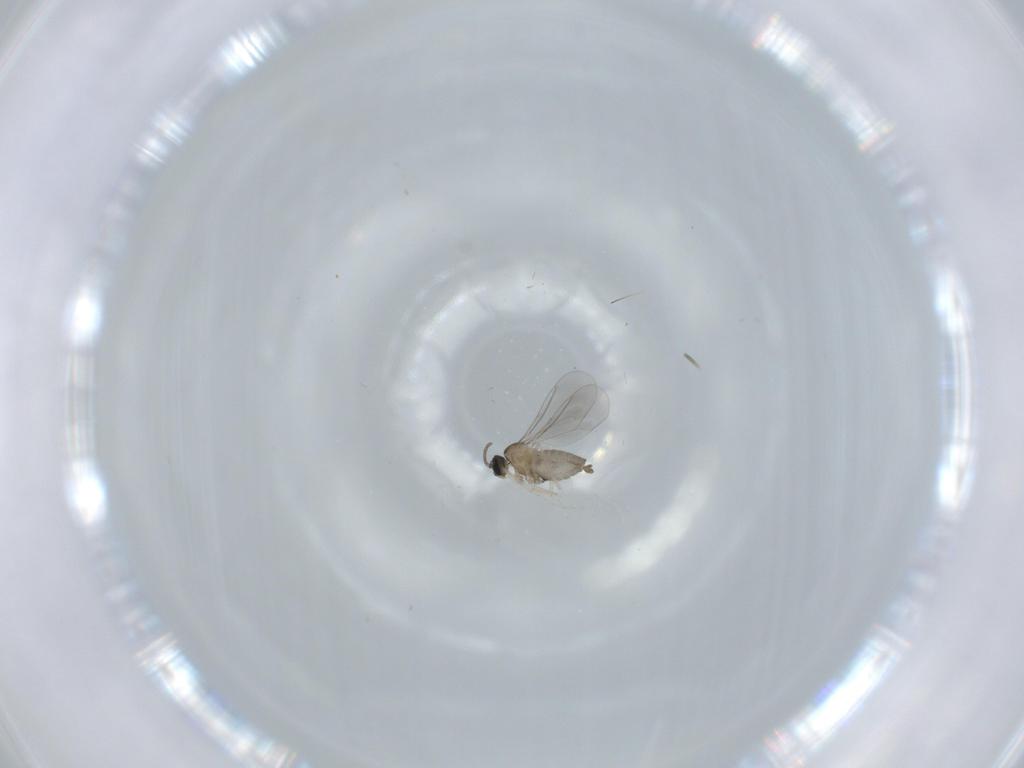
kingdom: Animalia
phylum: Arthropoda
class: Insecta
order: Diptera
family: Cecidomyiidae
